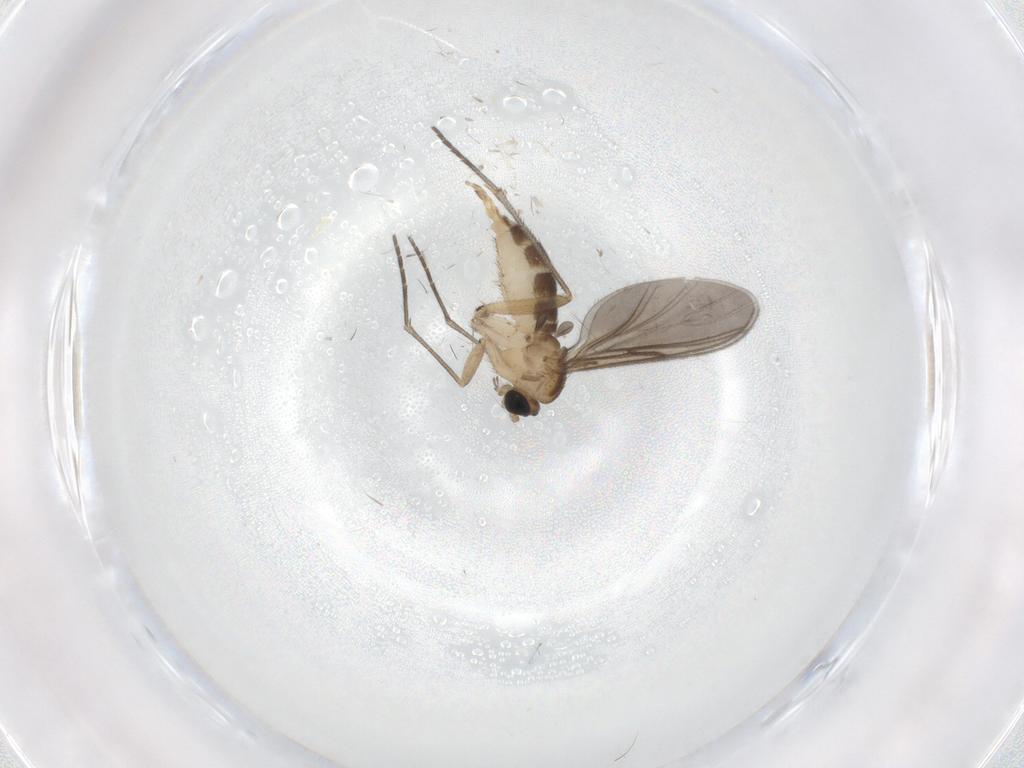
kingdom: Animalia
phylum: Arthropoda
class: Insecta
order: Diptera
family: Sciaridae
